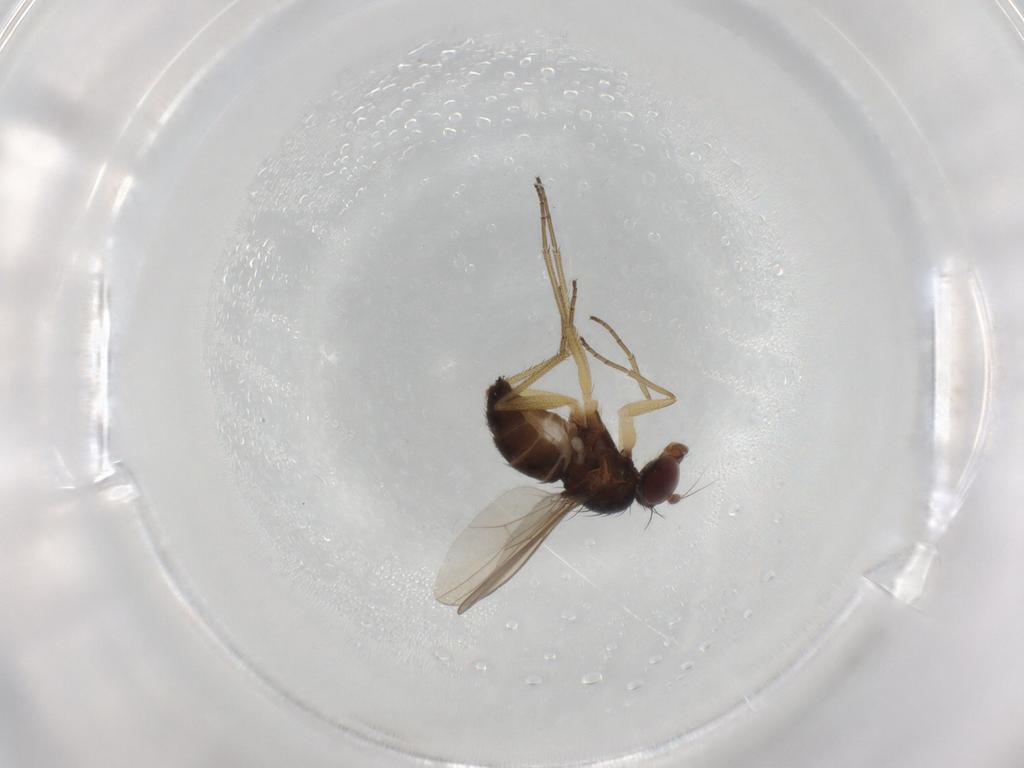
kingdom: Animalia
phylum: Arthropoda
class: Insecta
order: Diptera
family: Dolichopodidae
